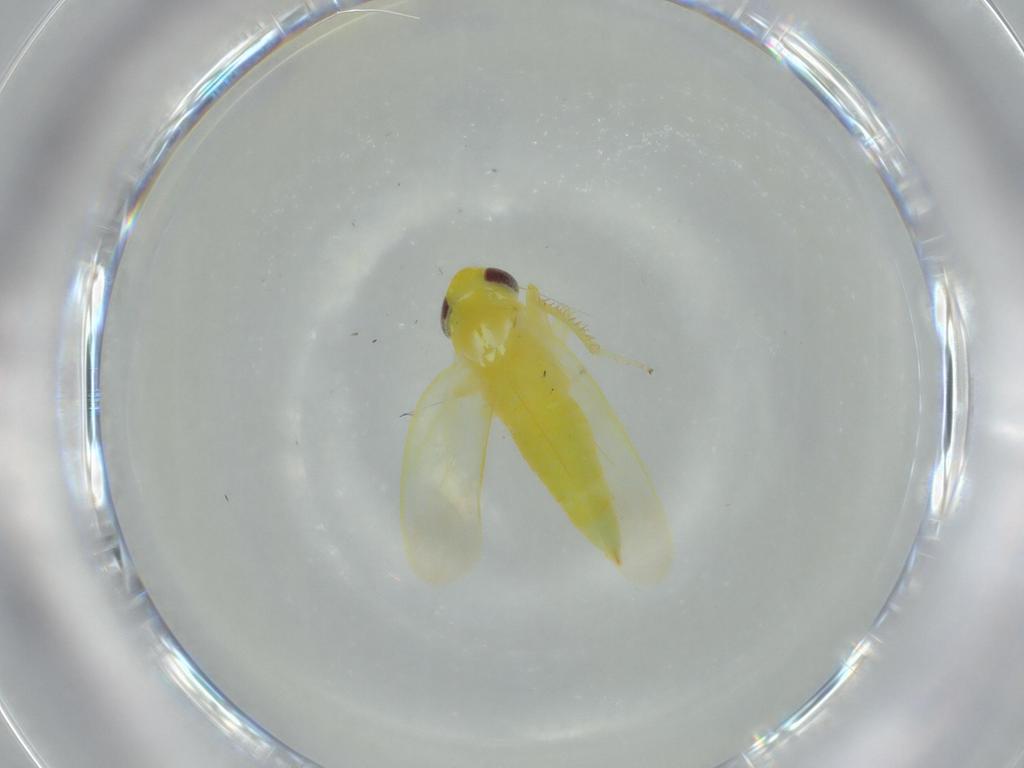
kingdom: Animalia
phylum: Arthropoda
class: Insecta
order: Hemiptera
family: Cicadellidae
